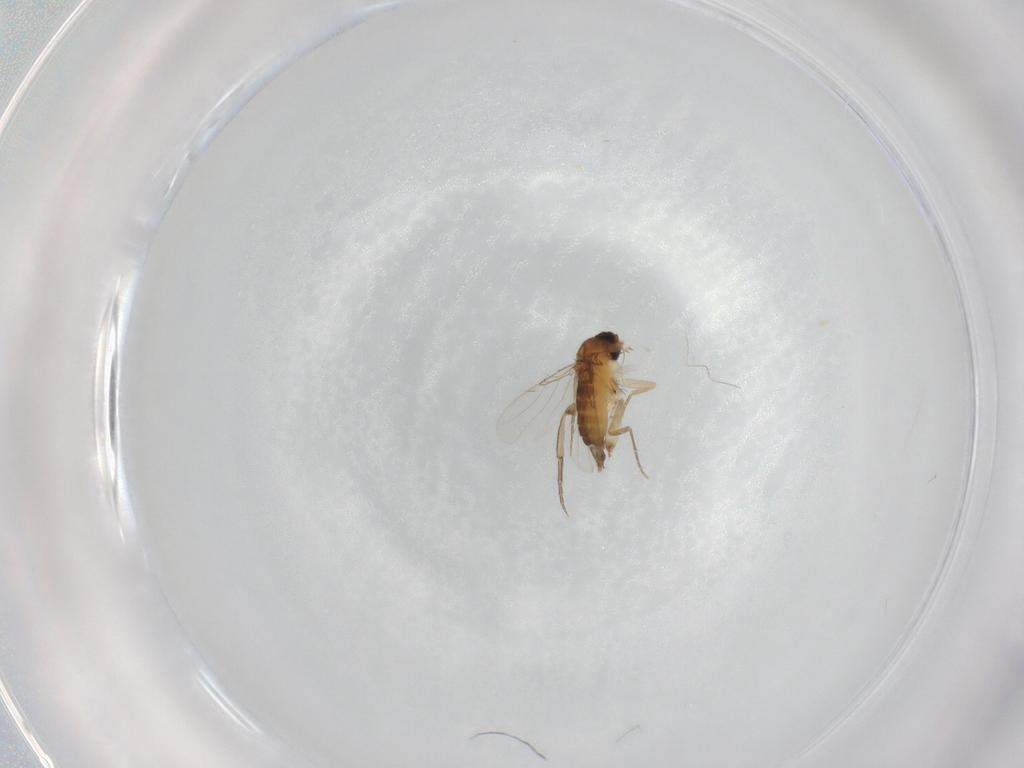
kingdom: Animalia
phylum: Arthropoda
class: Insecta
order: Diptera
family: Phoridae
